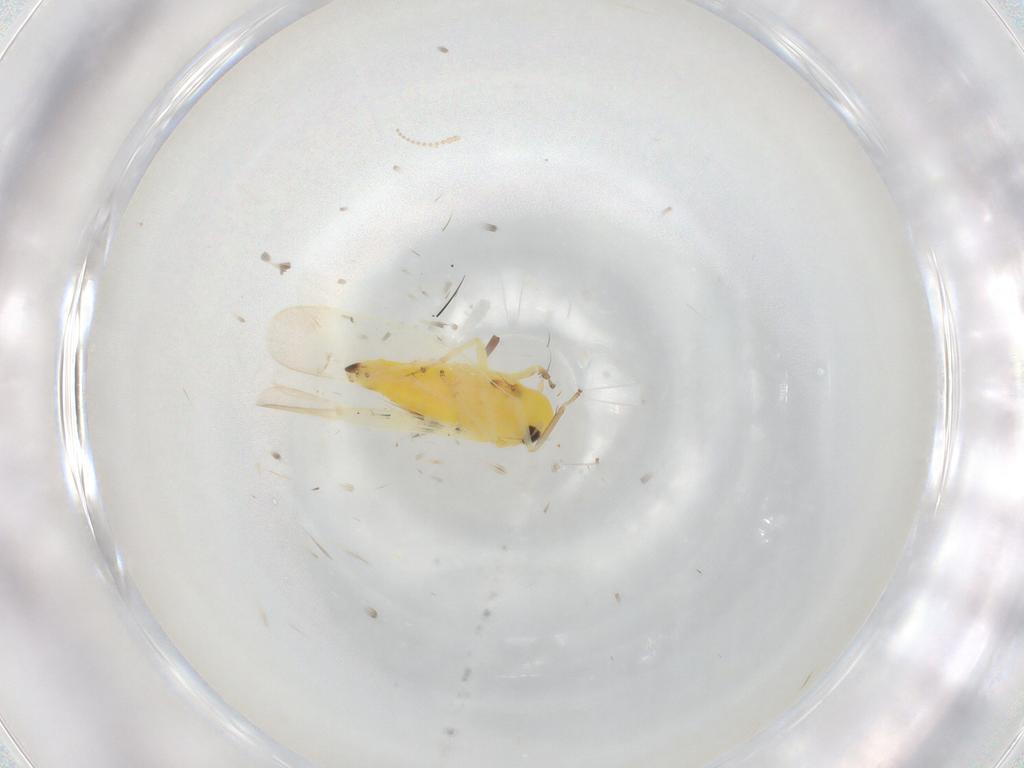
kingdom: Animalia
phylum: Arthropoda
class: Insecta
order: Hemiptera
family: Cicadellidae
